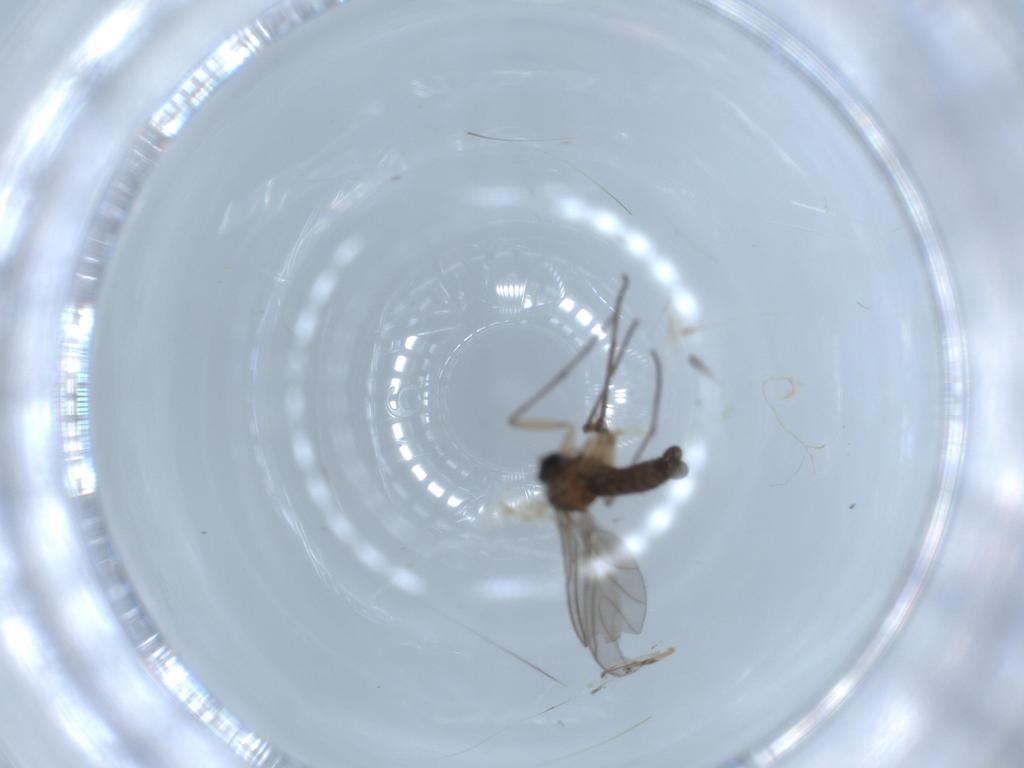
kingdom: Animalia
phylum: Arthropoda
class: Insecta
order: Diptera
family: Sciaridae
